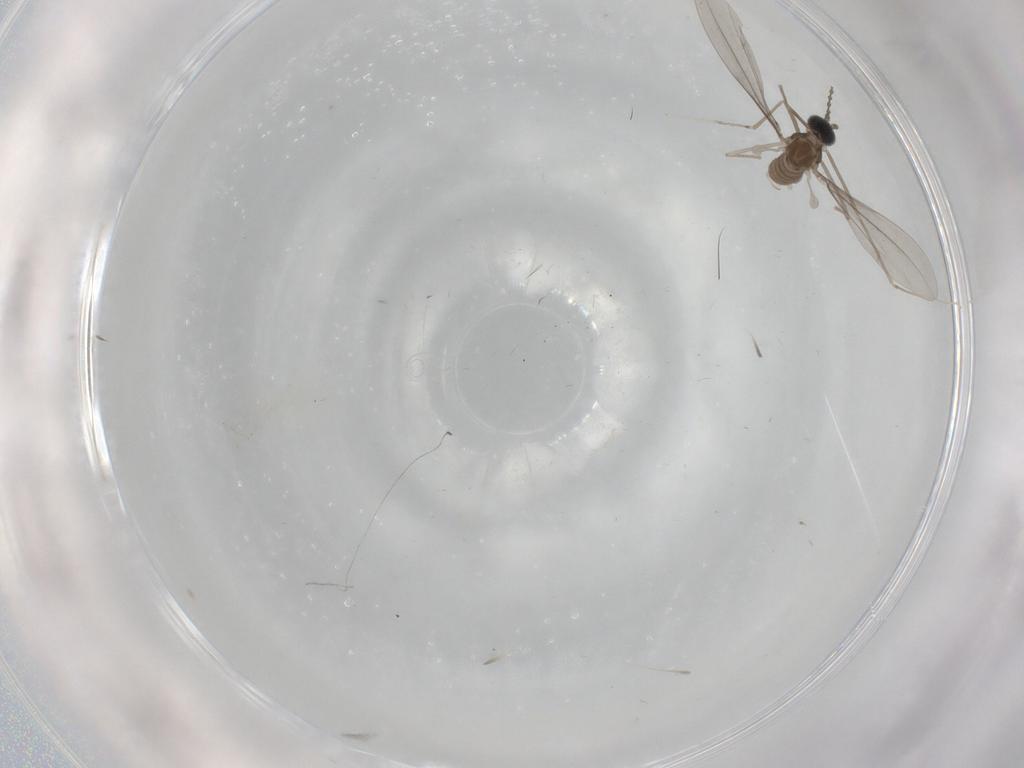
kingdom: Animalia
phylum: Arthropoda
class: Insecta
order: Diptera
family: Cecidomyiidae
